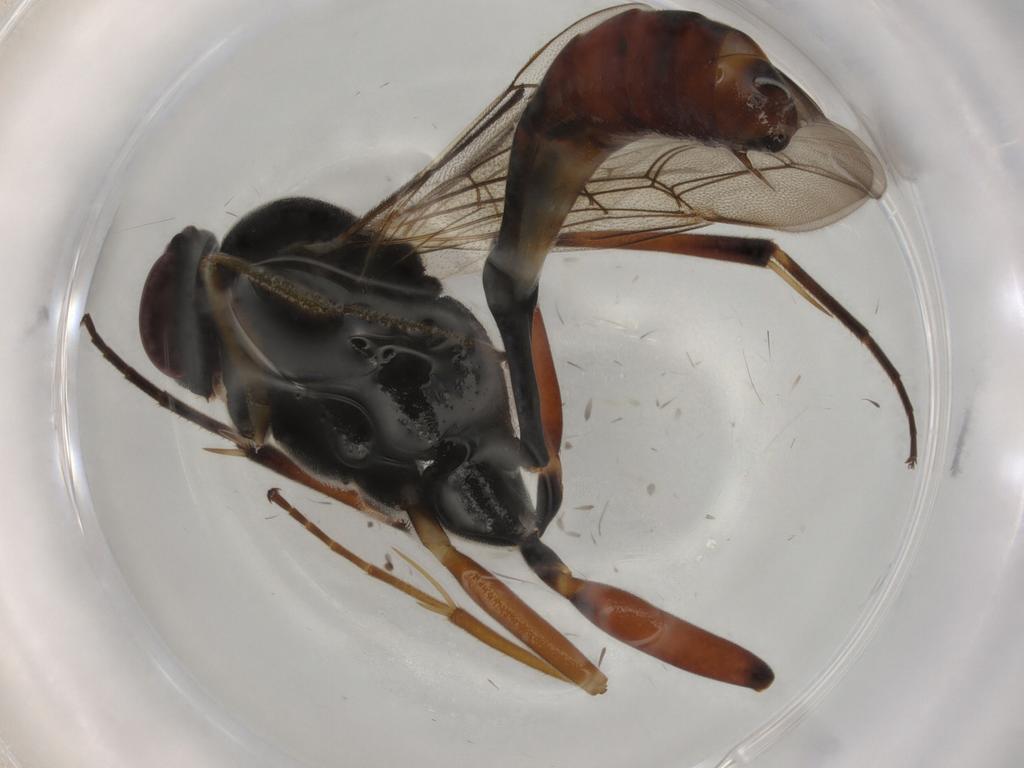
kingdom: Animalia
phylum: Arthropoda
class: Insecta
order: Hymenoptera
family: Ichneumonidae
